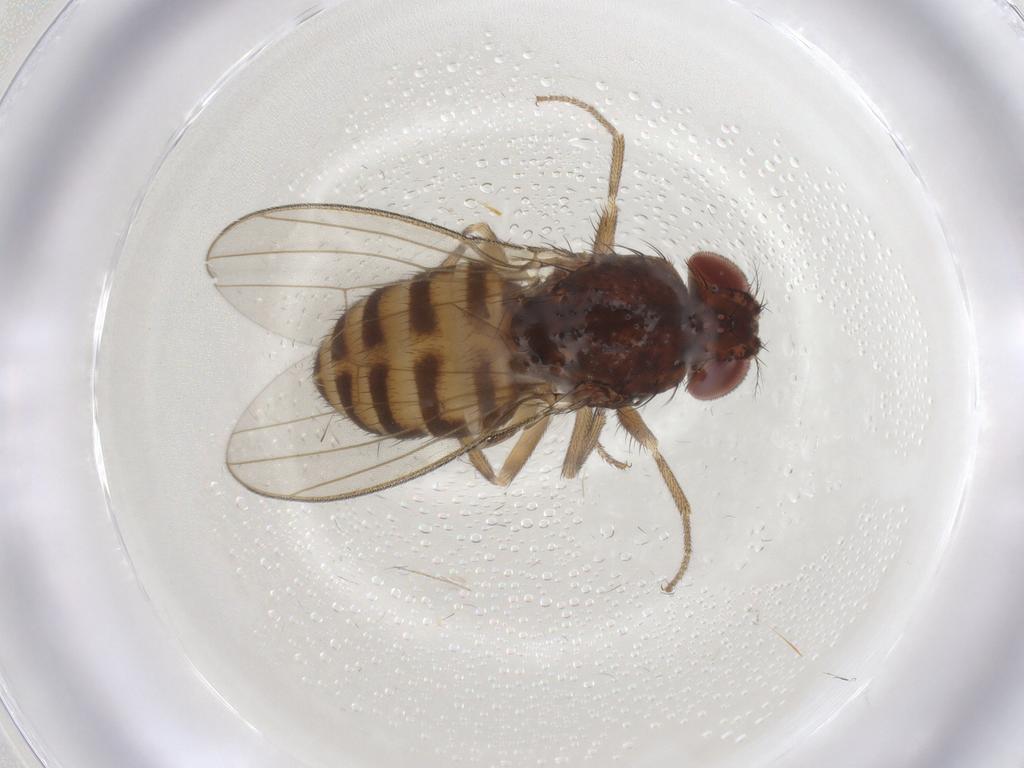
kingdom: Animalia
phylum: Arthropoda
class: Insecta
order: Diptera
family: Drosophilidae
